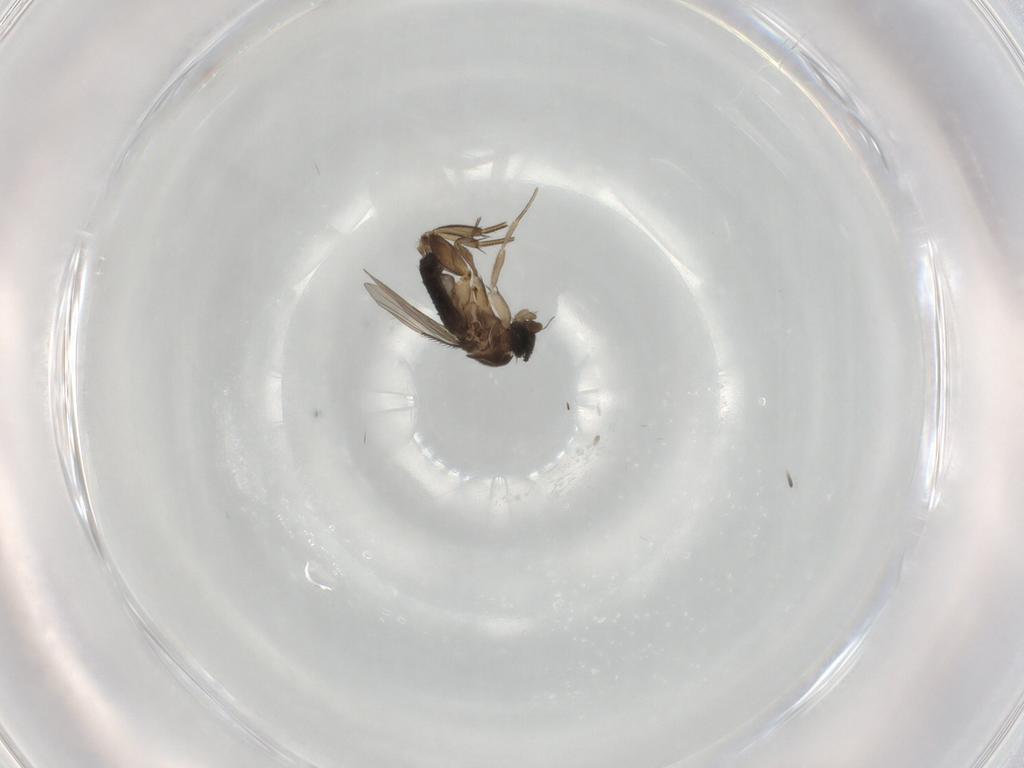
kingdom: Animalia
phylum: Arthropoda
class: Insecta
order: Diptera
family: Phoridae
